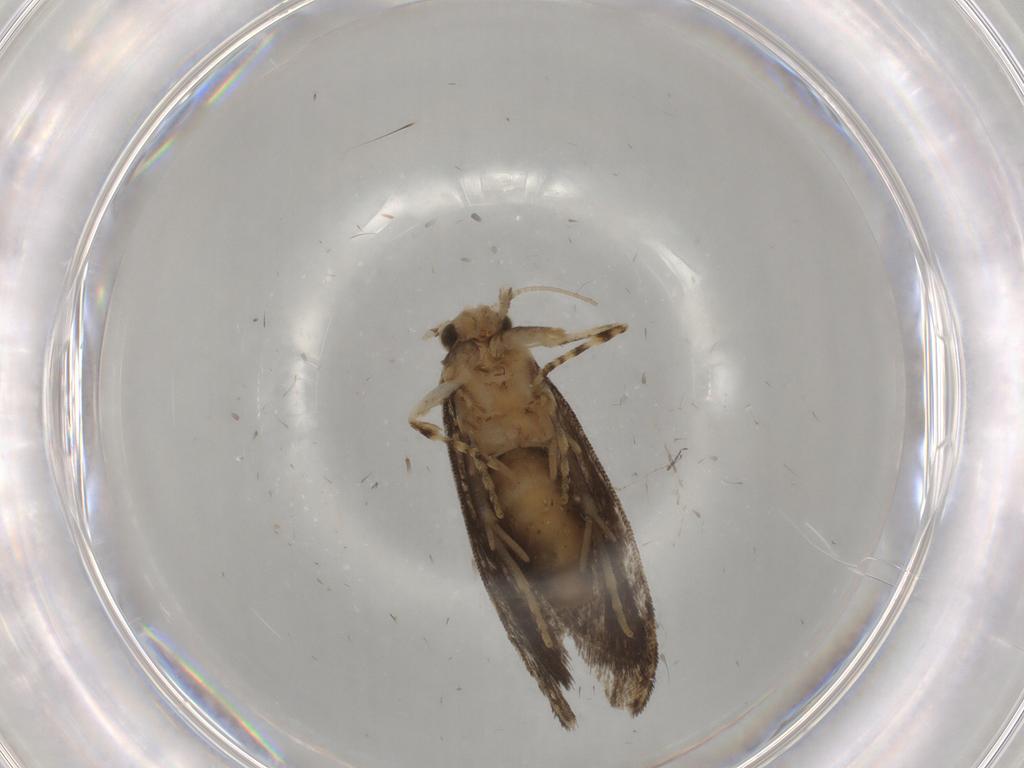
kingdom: Animalia
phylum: Arthropoda
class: Insecta
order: Lepidoptera
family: Tineidae
